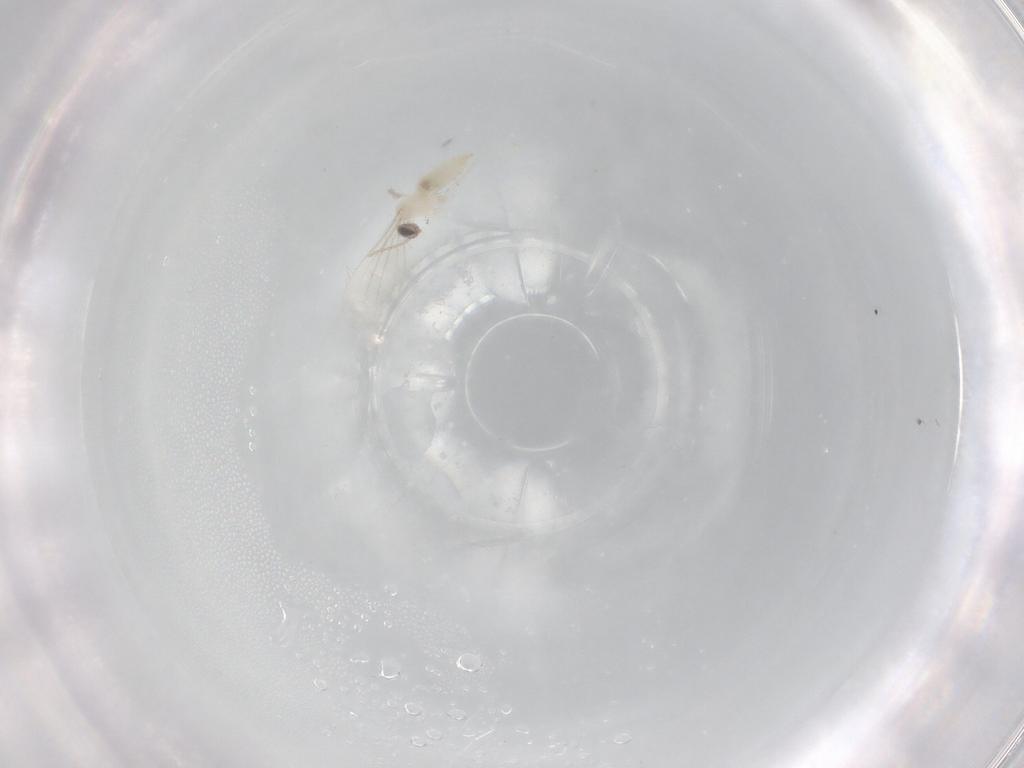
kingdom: Animalia
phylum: Arthropoda
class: Insecta
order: Diptera
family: Cecidomyiidae
